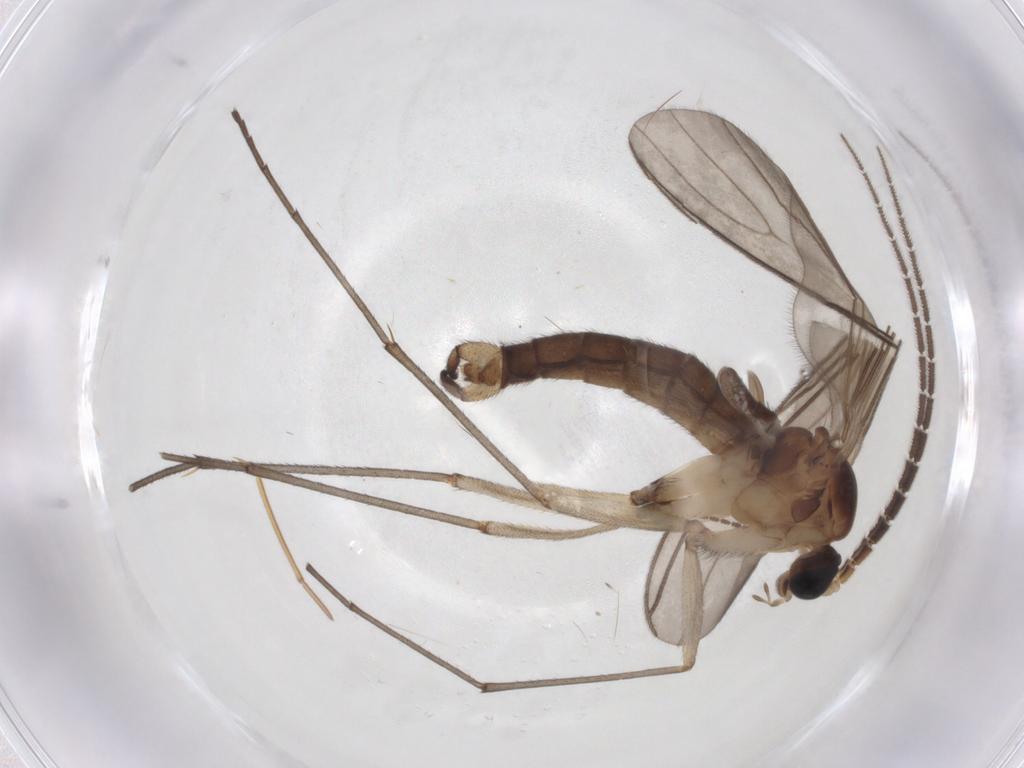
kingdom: Animalia
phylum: Arthropoda
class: Insecta
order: Diptera
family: Sciaridae
